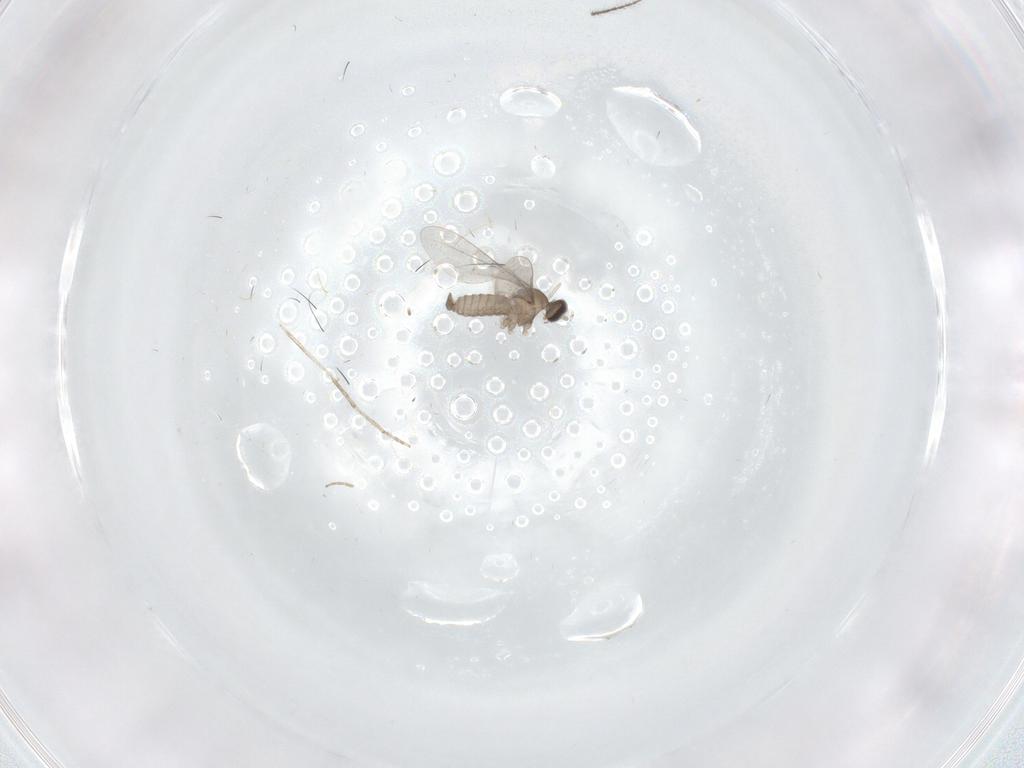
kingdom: Animalia
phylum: Arthropoda
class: Insecta
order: Diptera
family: Cecidomyiidae
